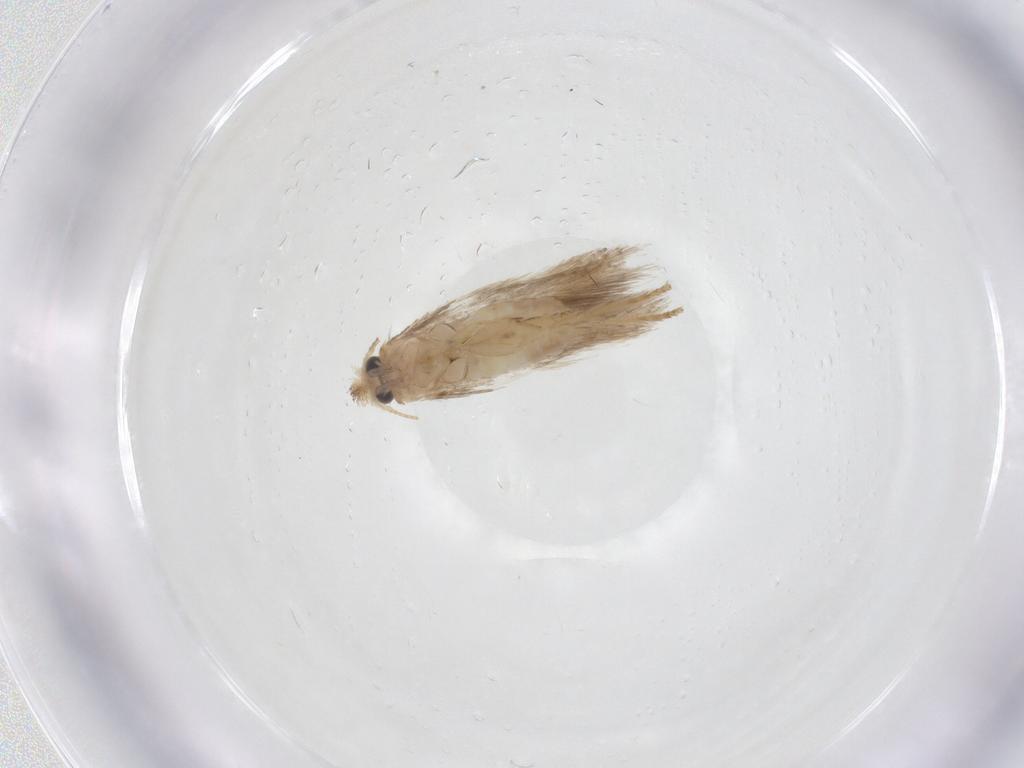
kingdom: Animalia
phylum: Arthropoda
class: Insecta
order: Lepidoptera
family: Nepticulidae
